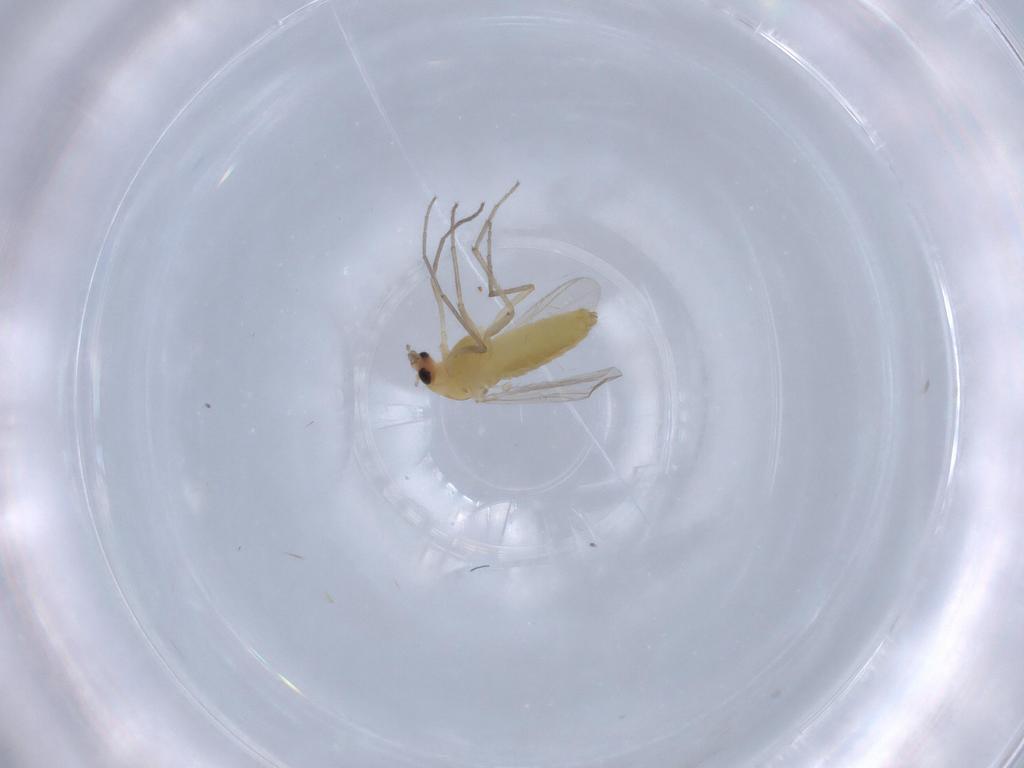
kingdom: Animalia
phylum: Arthropoda
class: Insecta
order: Diptera
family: Chironomidae
